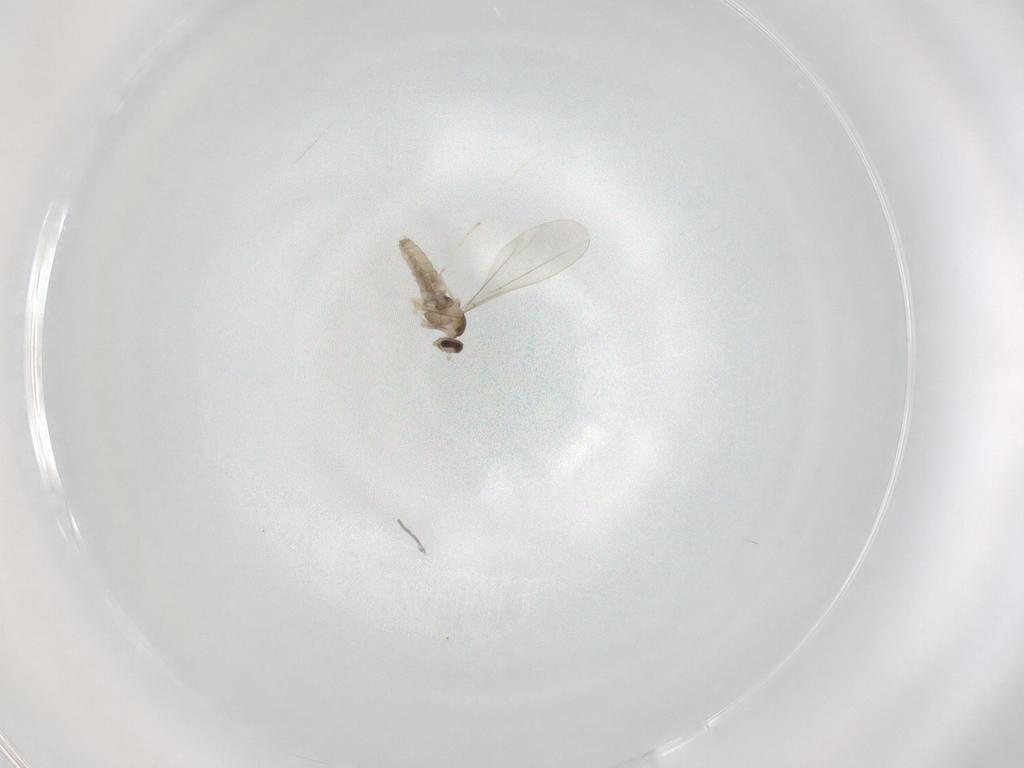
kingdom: Animalia
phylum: Arthropoda
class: Insecta
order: Diptera
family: Cecidomyiidae
